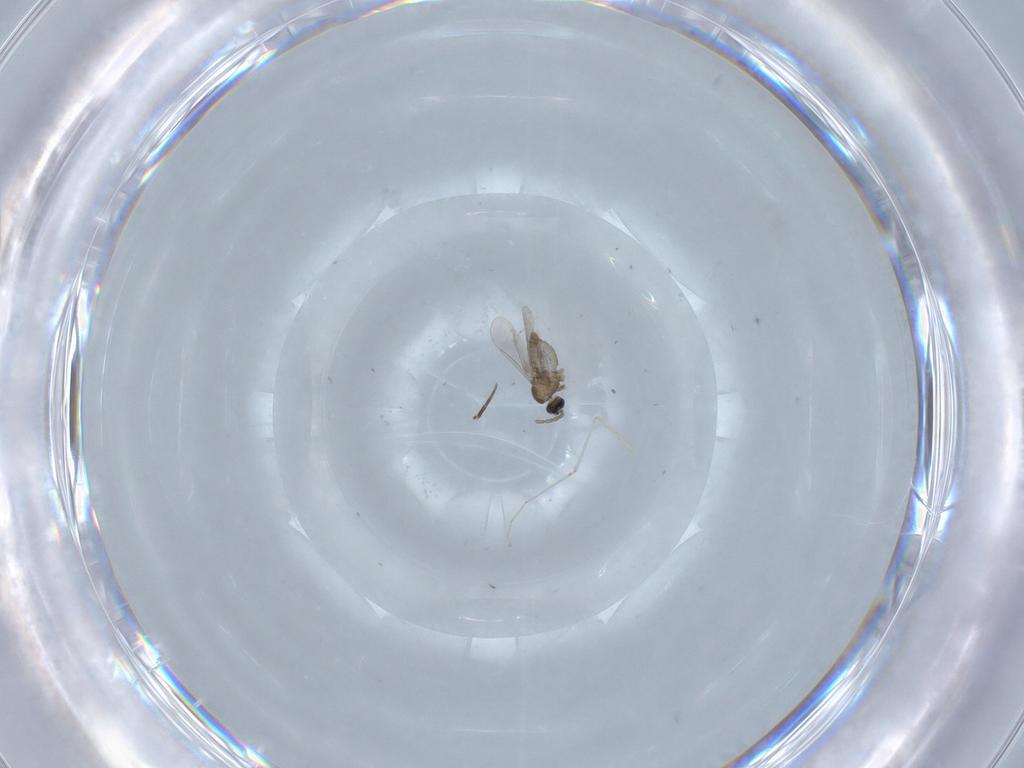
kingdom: Animalia
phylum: Arthropoda
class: Insecta
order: Diptera
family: Cecidomyiidae
